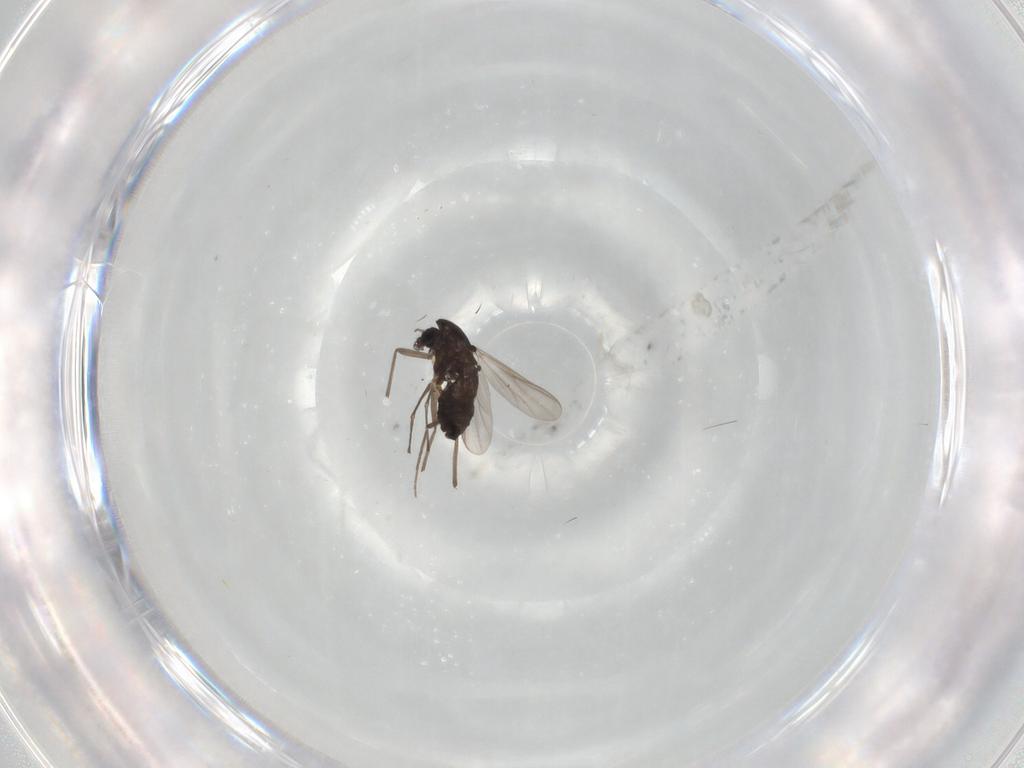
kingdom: Animalia
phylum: Arthropoda
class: Insecta
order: Diptera
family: Chironomidae
